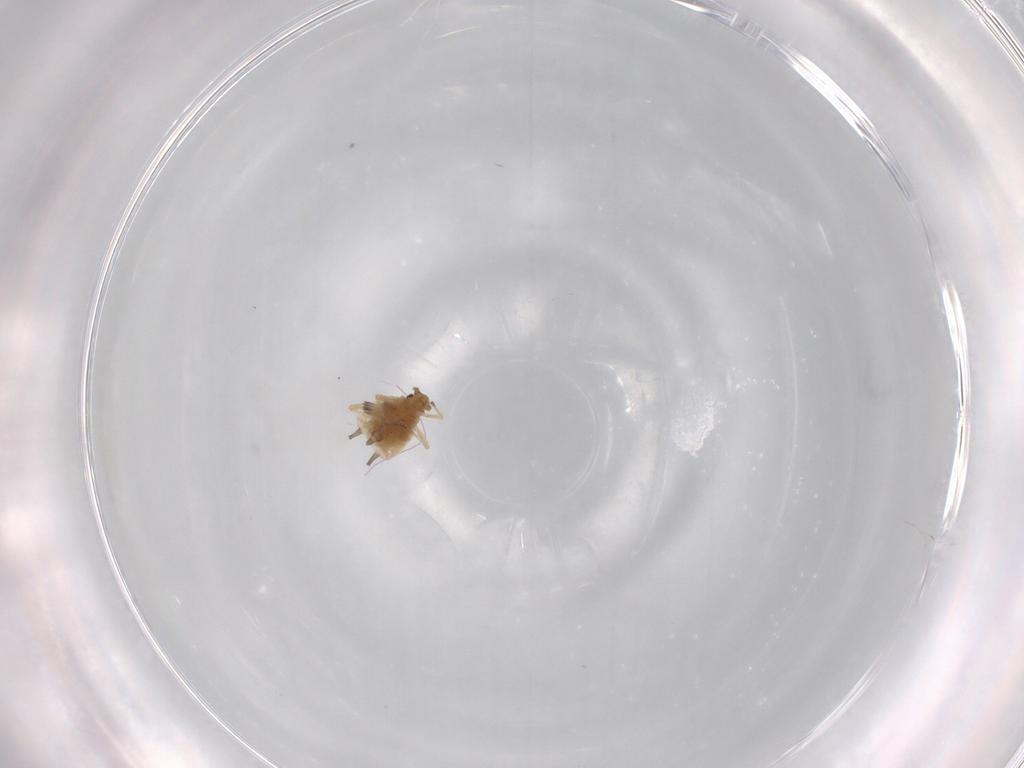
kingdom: Animalia
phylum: Arthropoda
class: Insecta
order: Hemiptera
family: Aphididae
